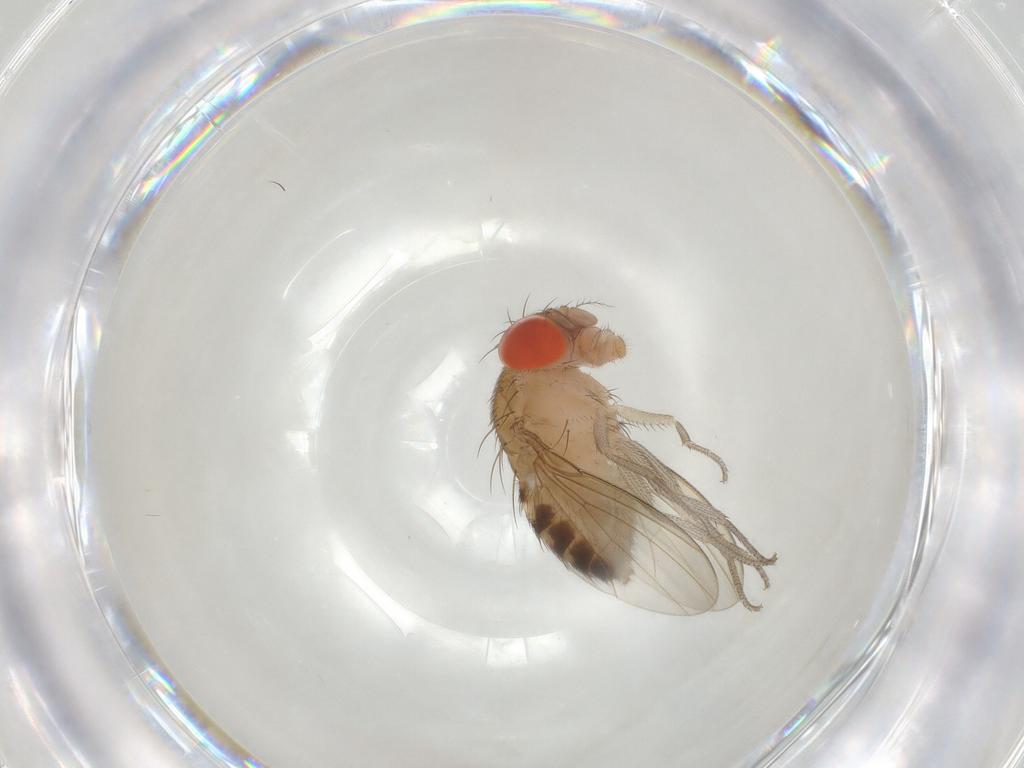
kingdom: Animalia
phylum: Arthropoda
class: Insecta
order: Diptera
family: Drosophilidae
